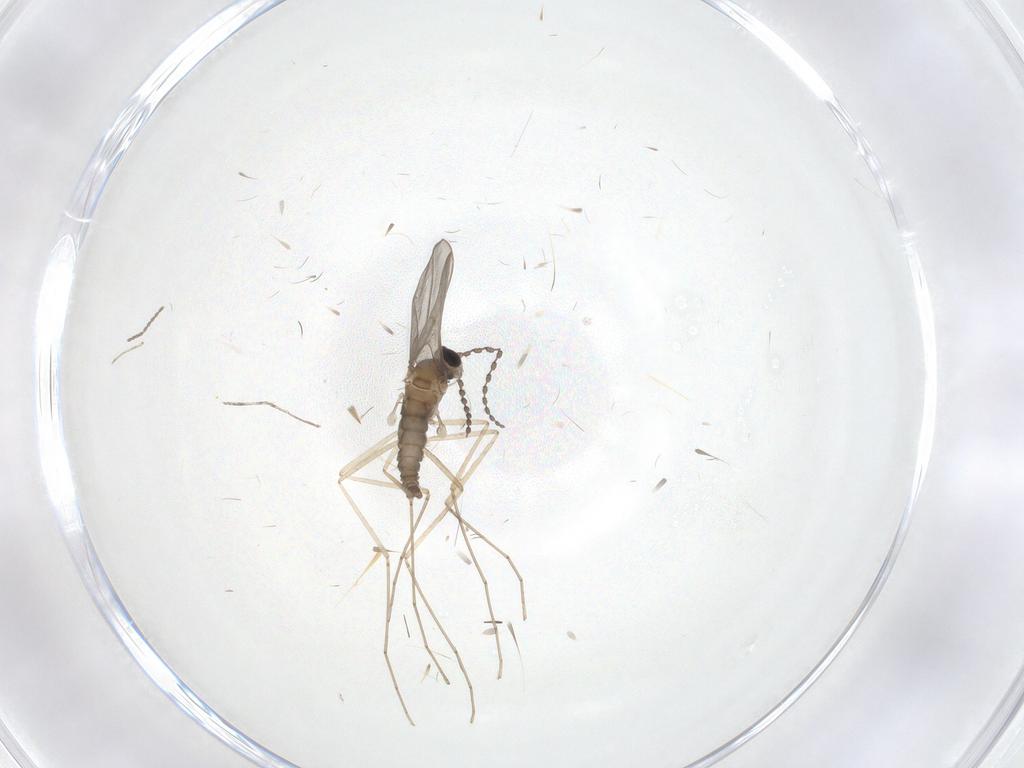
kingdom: Animalia
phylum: Arthropoda
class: Insecta
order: Diptera
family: Cecidomyiidae
